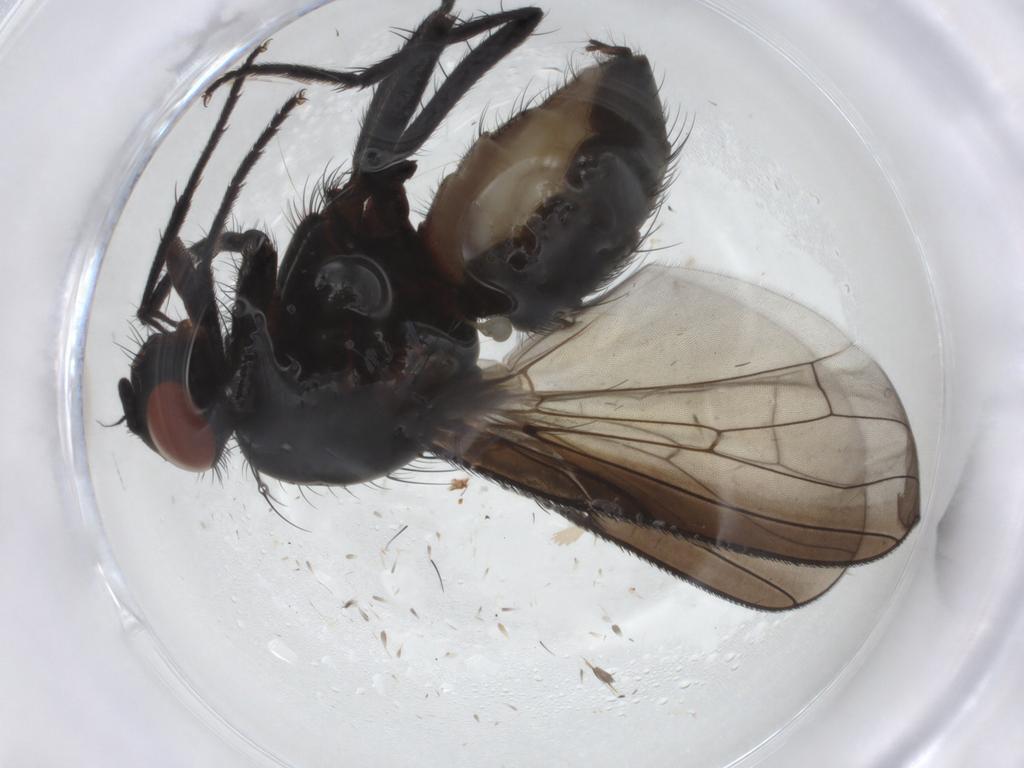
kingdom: Animalia
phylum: Arthropoda
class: Insecta
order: Diptera
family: Anthomyiidae
